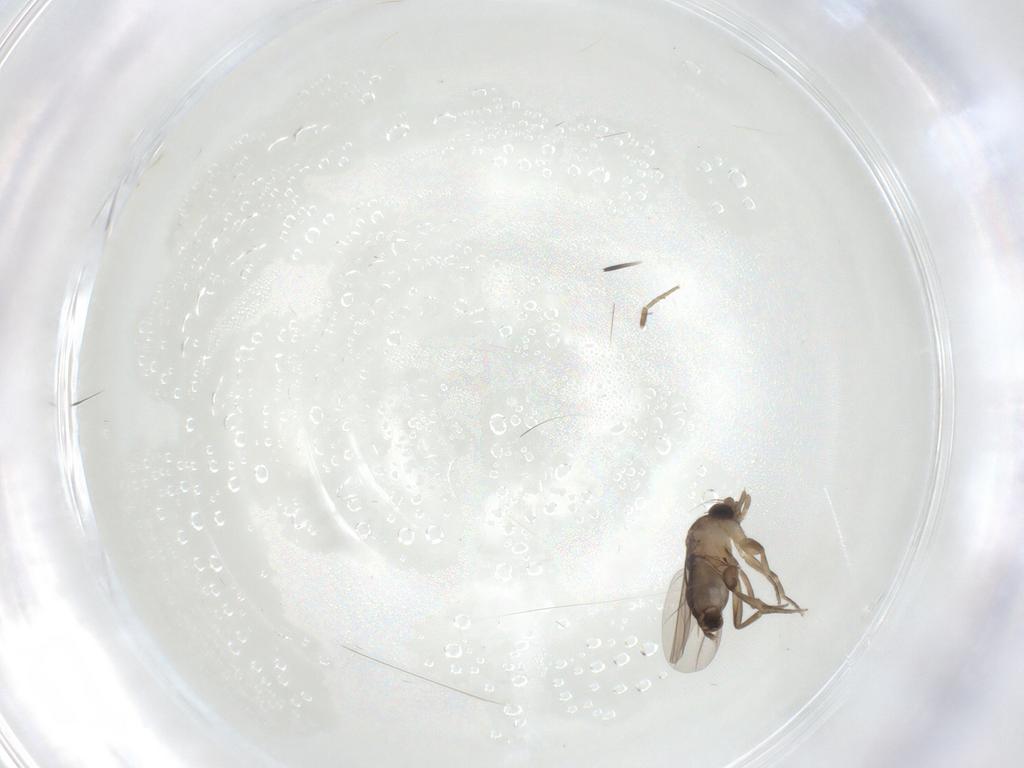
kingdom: Animalia
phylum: Arthropoda
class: Insecta
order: Diptera
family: Phoridae
